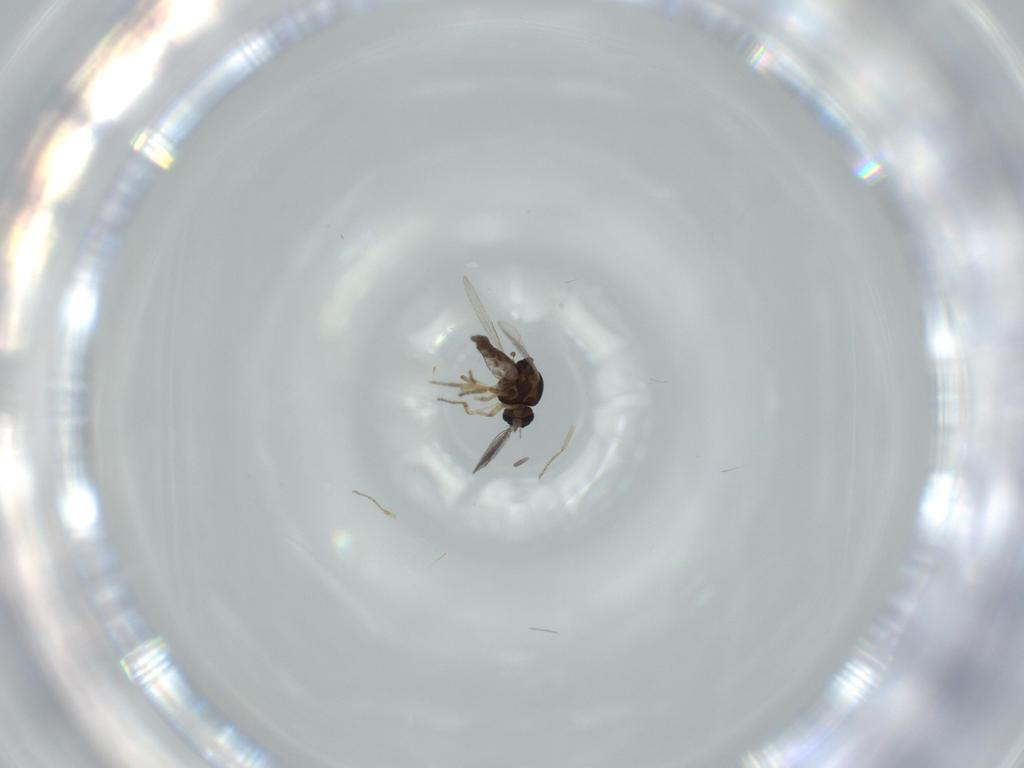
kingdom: Animalia
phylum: Arthropoda
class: Insecta
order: Diptera
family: Ceratopogonidae
